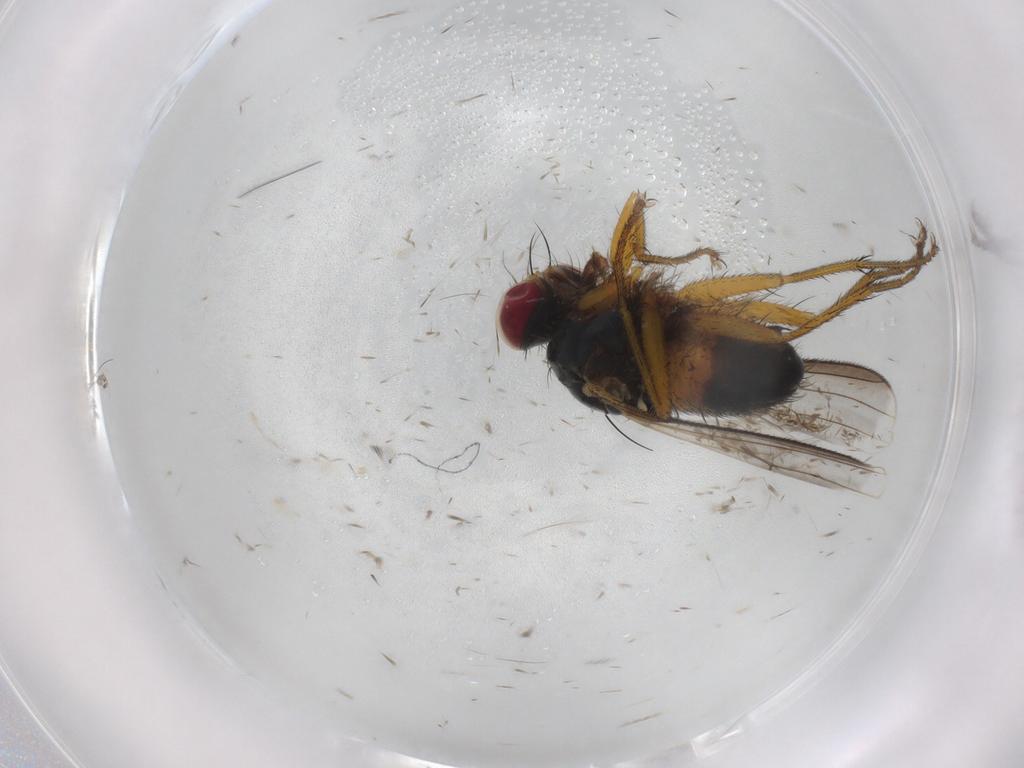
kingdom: Animalia
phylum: Arthropoda
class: Insecta
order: Diptera
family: Muscidae
